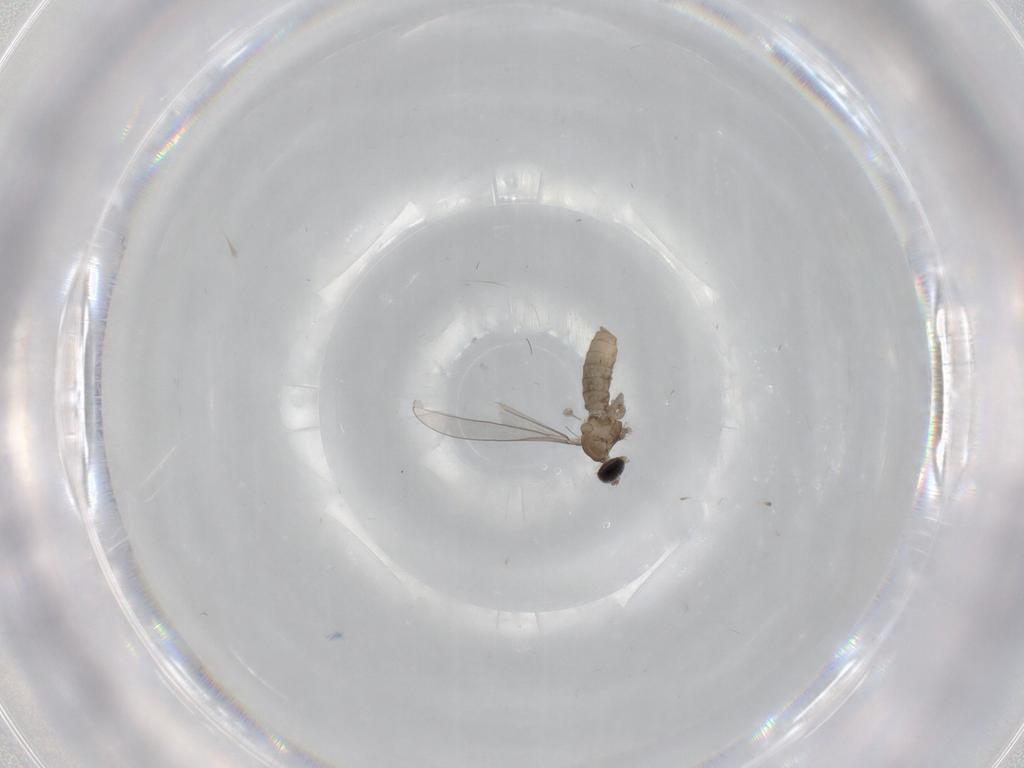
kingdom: Animalia
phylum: Arthropoda
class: Insecta
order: Diptera
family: Cecidomyiidae
